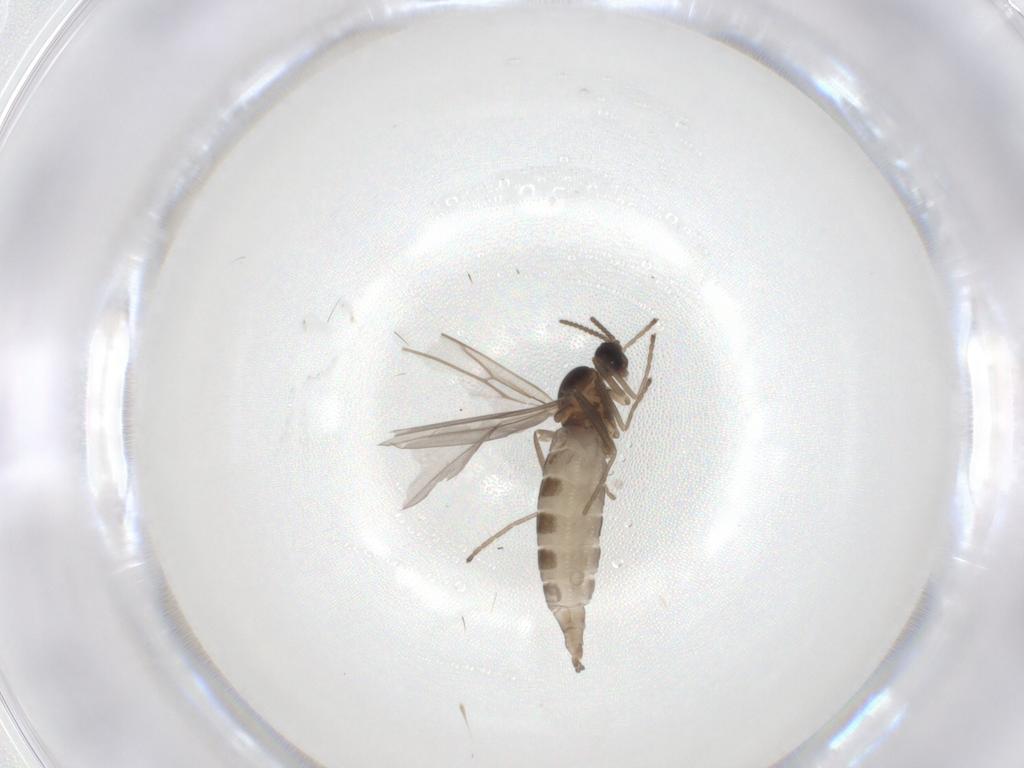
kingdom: Animalia
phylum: Arthropoda
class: Insecta
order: Diptera
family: Cecidomyiidae
